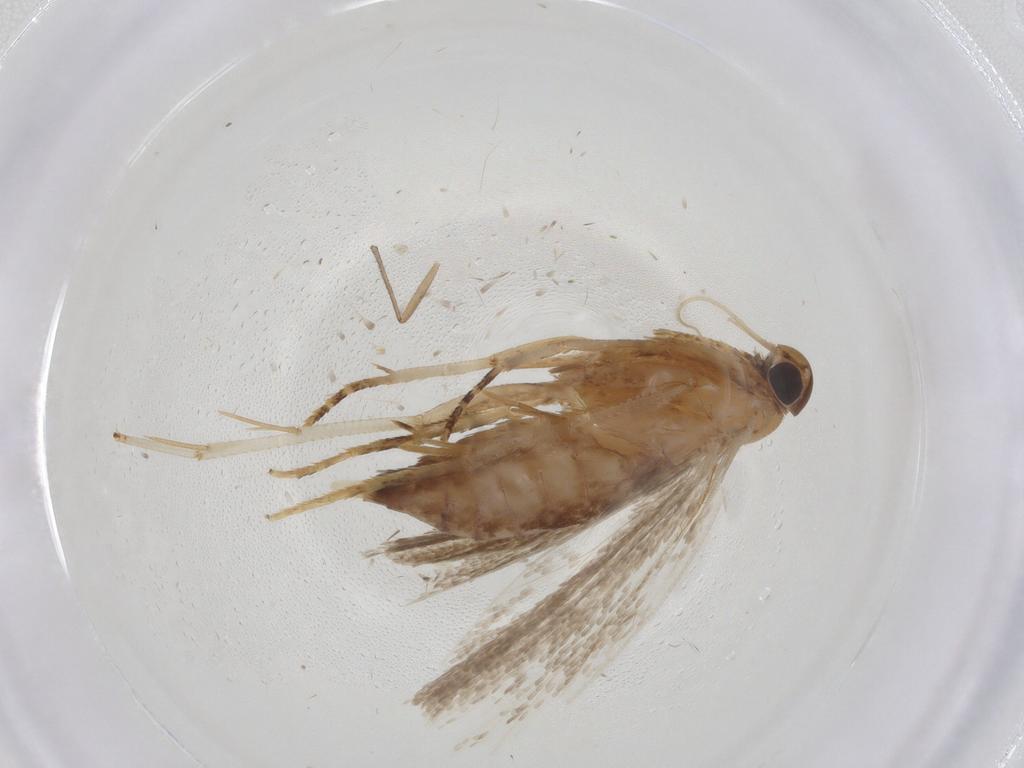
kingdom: Animalia
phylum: Arthropoda
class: Insecta
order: Lepidoptera
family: Gelechiidae
